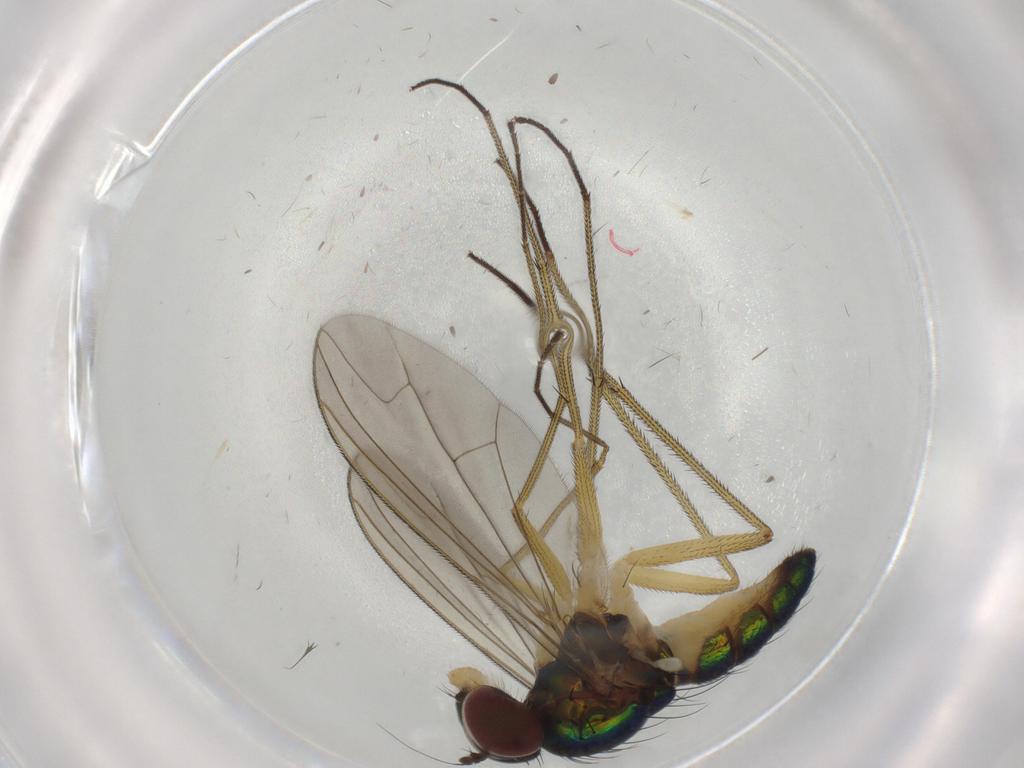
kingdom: Animalia
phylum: Arthropoda
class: Insecta
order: Diptera
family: Dolichopodidae
